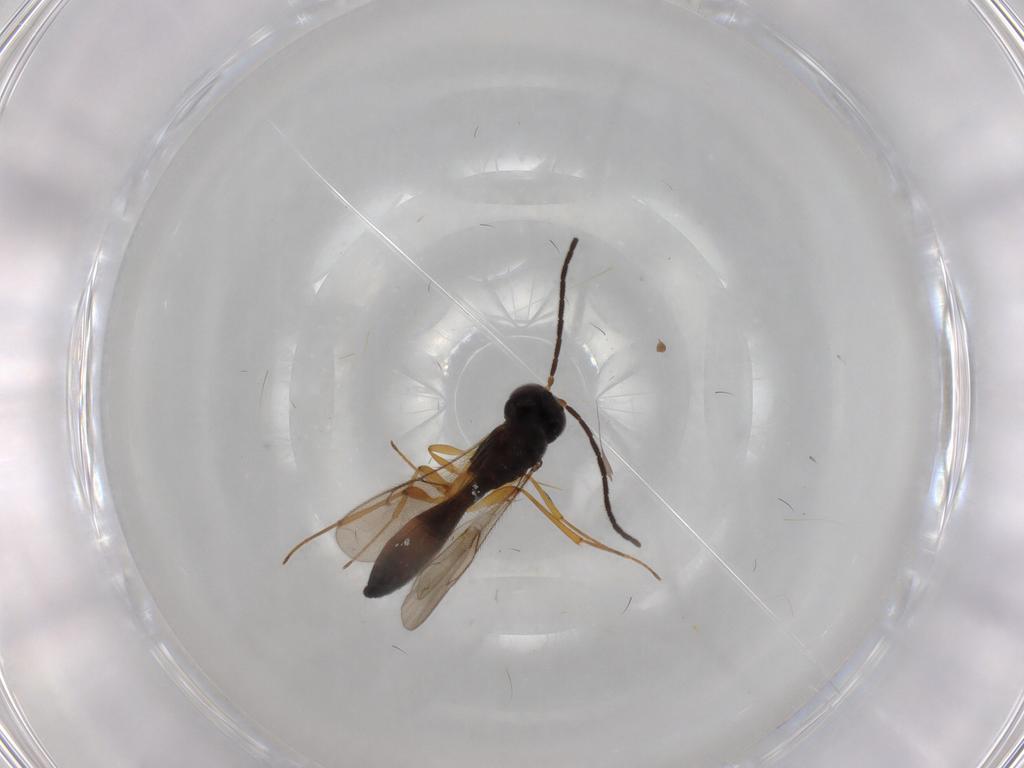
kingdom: Animalia
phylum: Arthropoda
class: Insecta
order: Hymenoptera
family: Scelionidae
